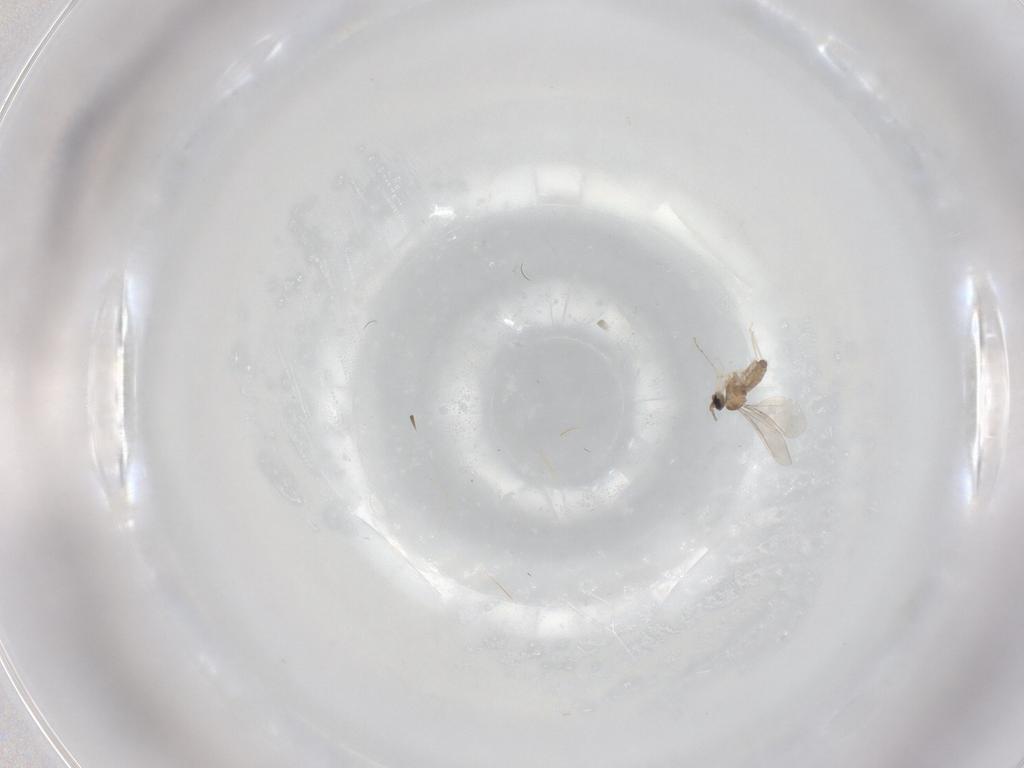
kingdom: Animalia
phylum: Arthropoda
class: Insecta
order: Diptera
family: Cecidomyiidae
